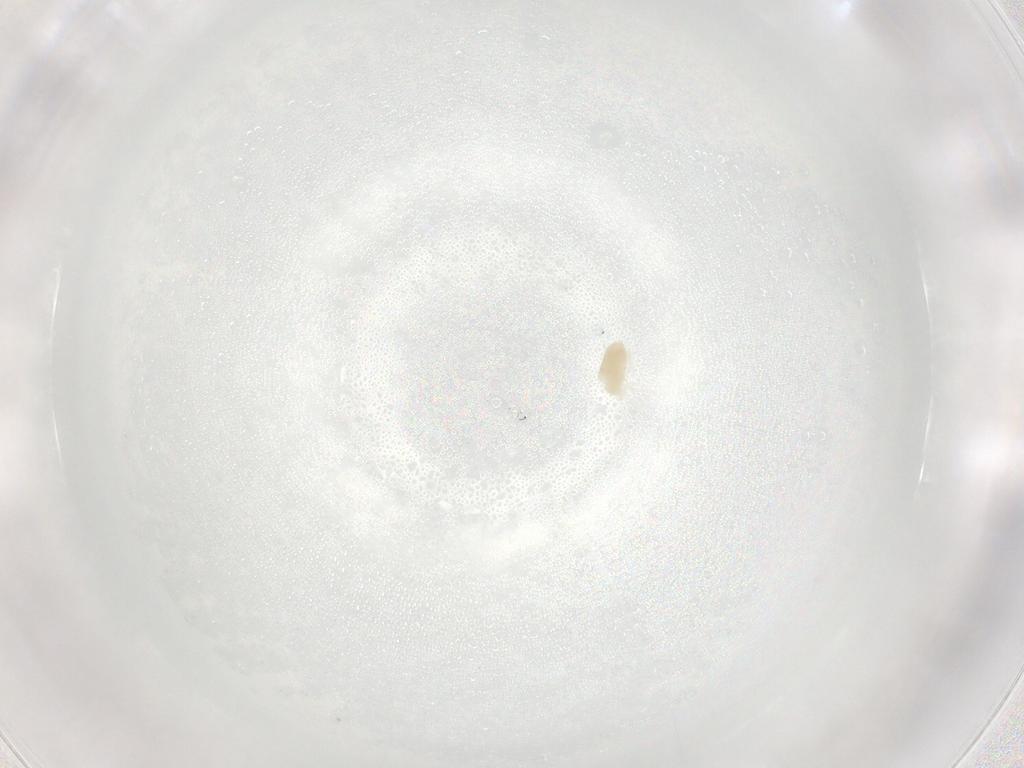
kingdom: Animalia
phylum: Arthropoda
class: Arachnida
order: Trombidiformes
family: Eupodidae
